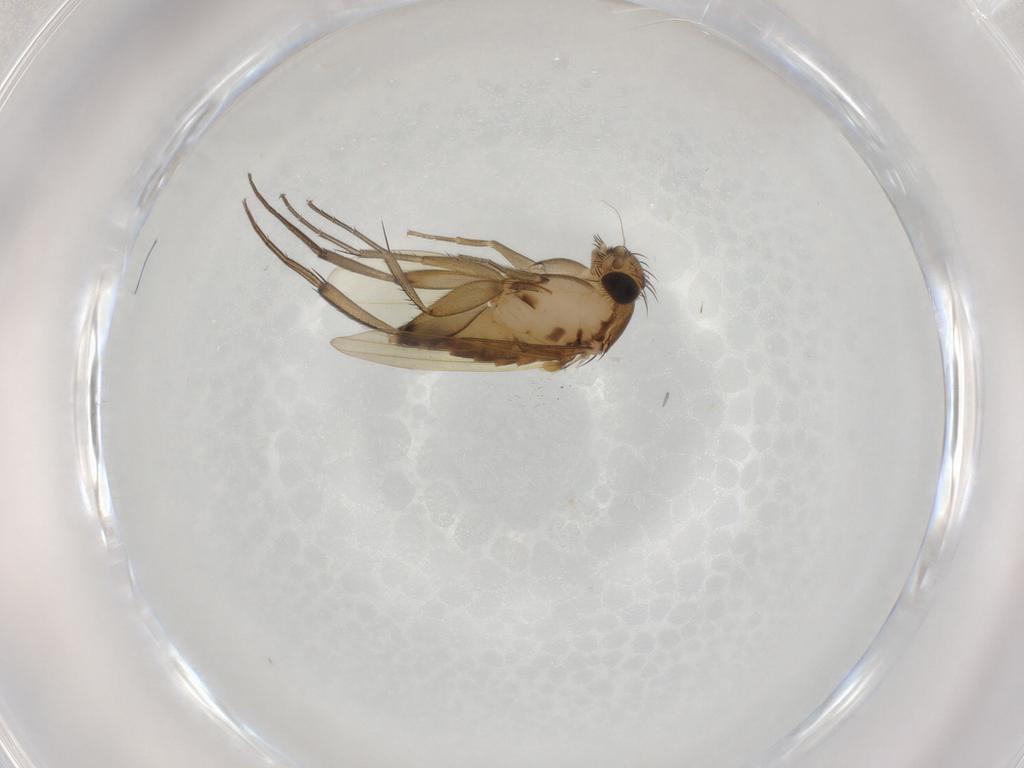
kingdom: Animalia
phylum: Arthropoda
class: Insecta
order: Diptera
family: Phoridae
